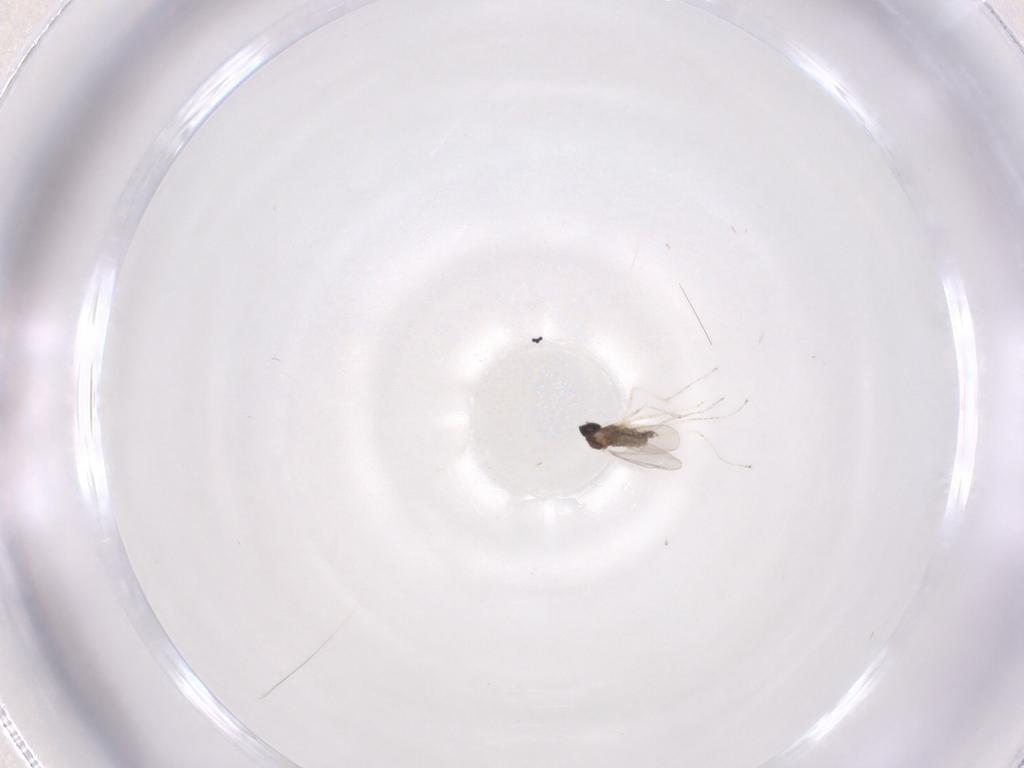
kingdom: Animalia
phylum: Arthropoda
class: Insecta
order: Diptera
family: Cecidomyiidae
